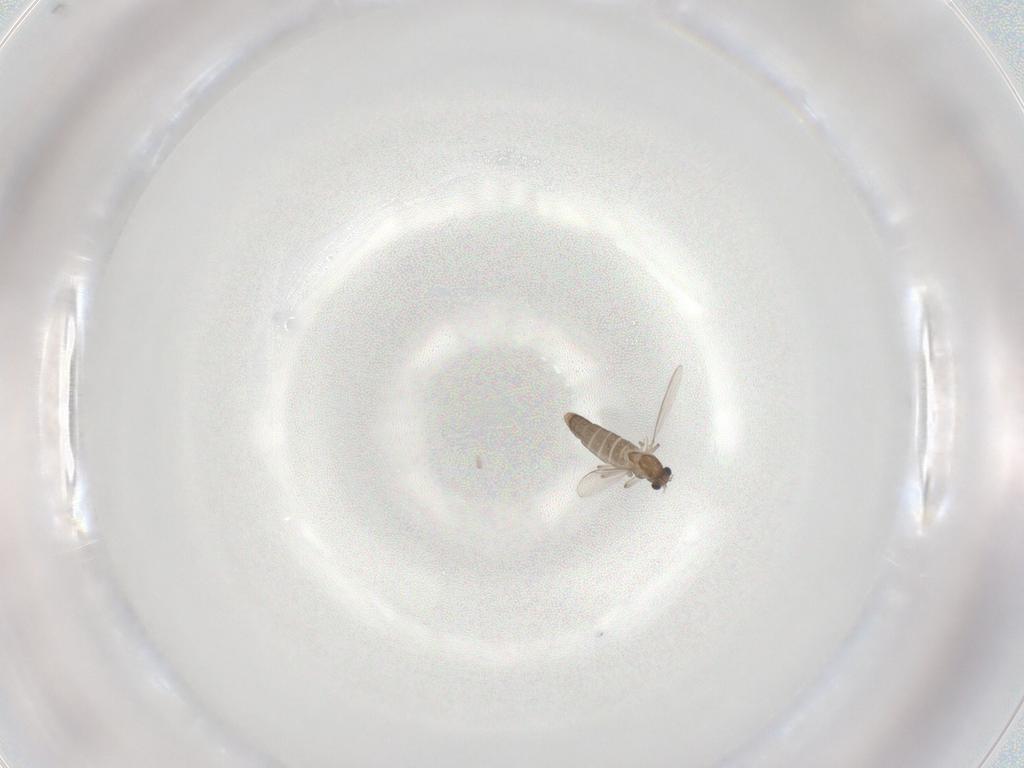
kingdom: Animalia
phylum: Arthropoda
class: Insecta
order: Diptera
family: Chironomidae
